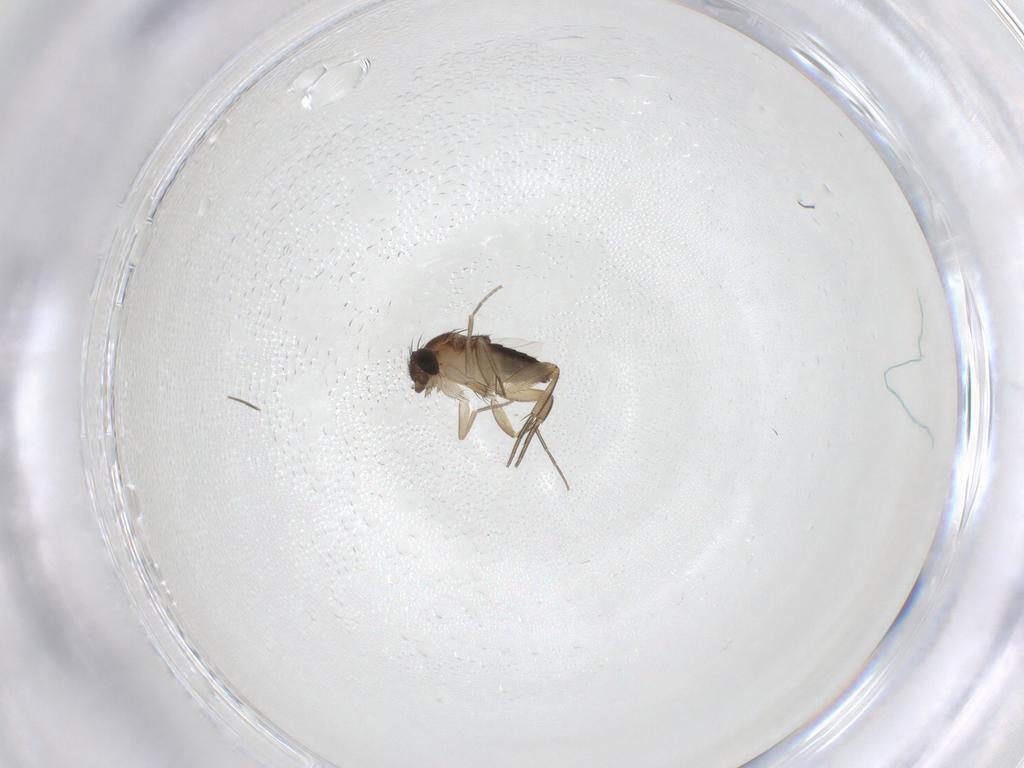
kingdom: Animalia
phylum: Arthropoda
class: Insecta
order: Diptera
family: Phoridae
